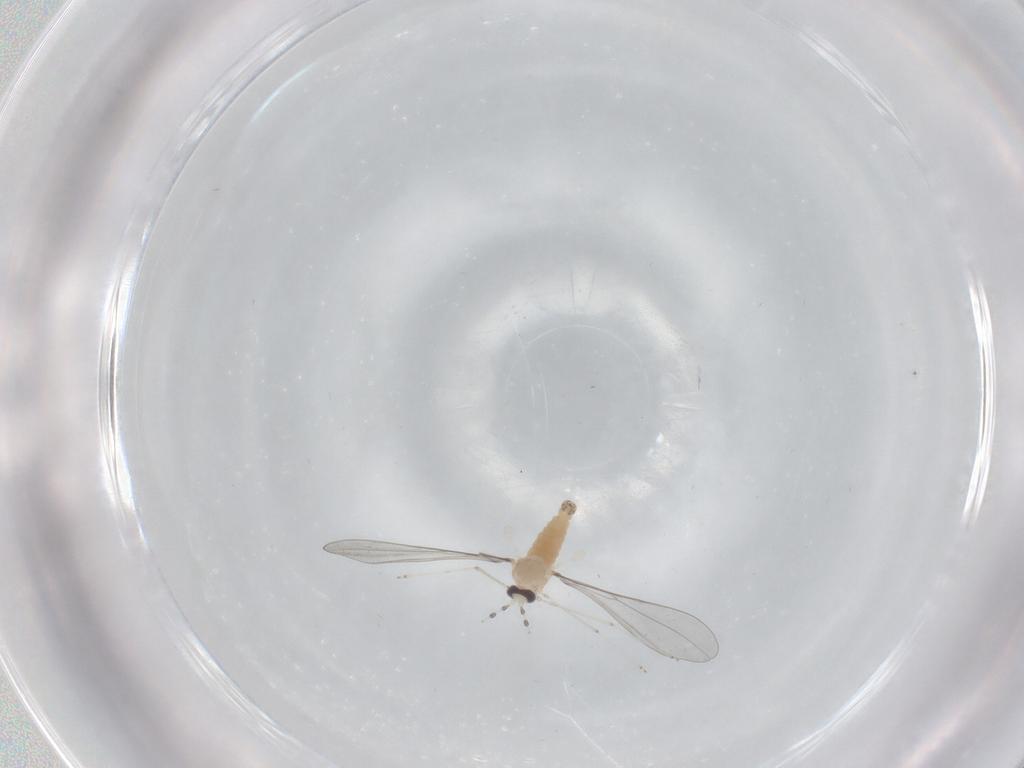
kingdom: Animalia
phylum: Arthropoda
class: Insecta
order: Diptera
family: Cecidomyiidae
